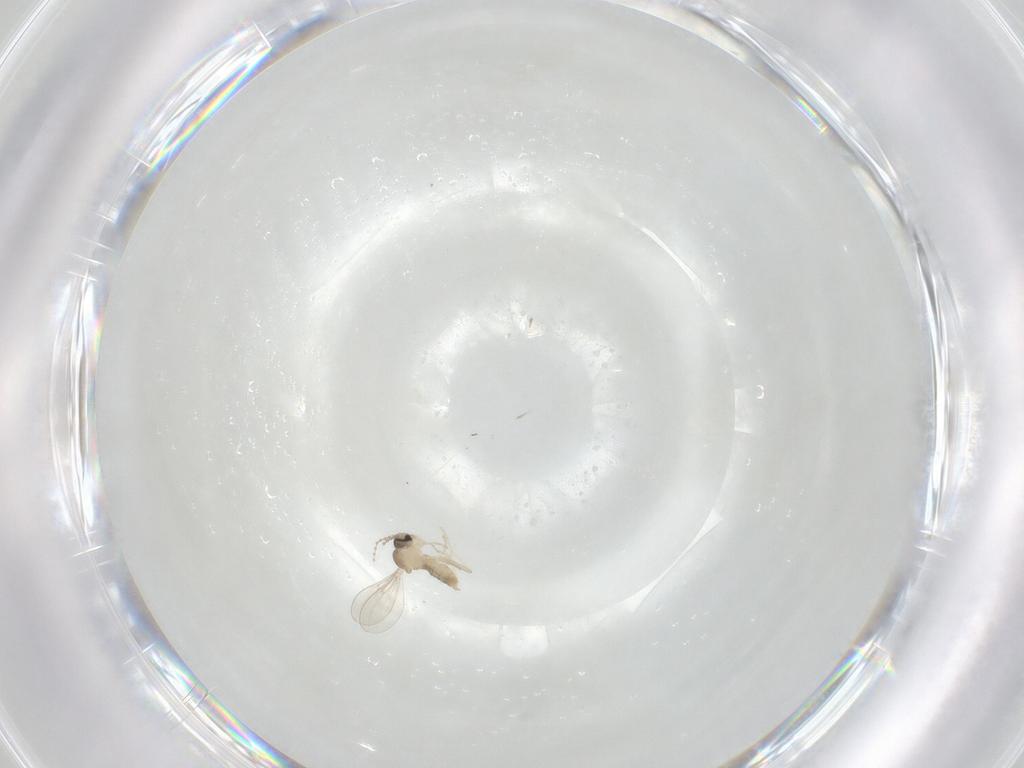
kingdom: Animalia
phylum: Arthropoda
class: Insecta
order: Diptera
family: Cecidomyiidae
